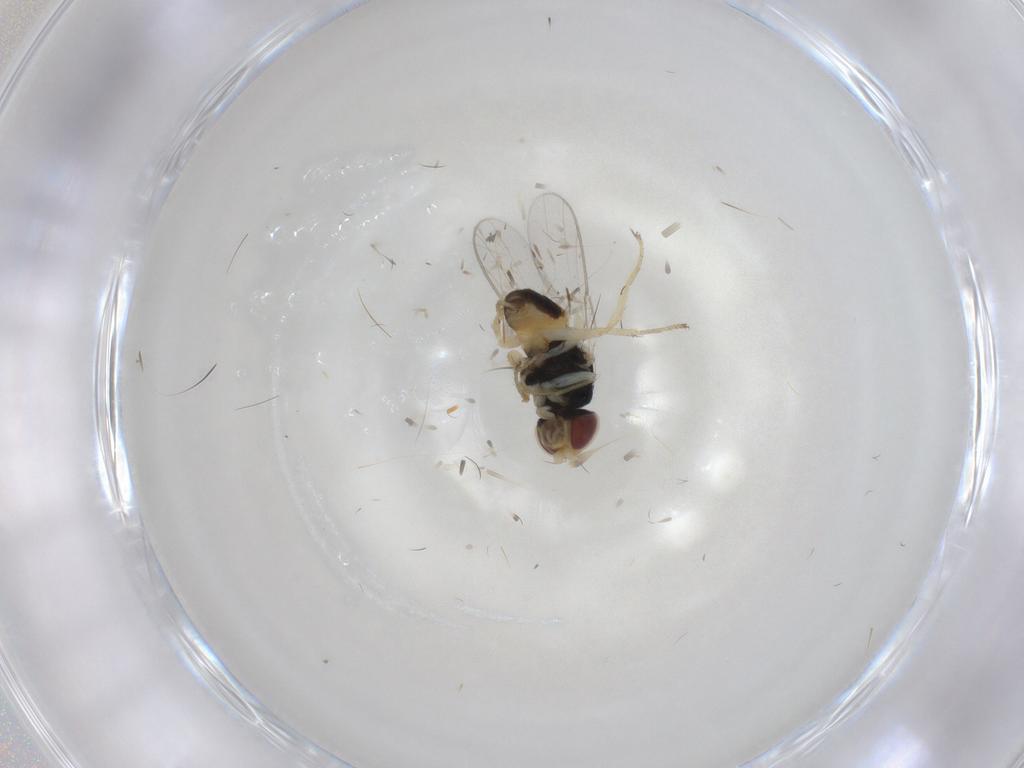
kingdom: Animalia
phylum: Arthropoda
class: Insecta
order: Diptera
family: Chloropidae
